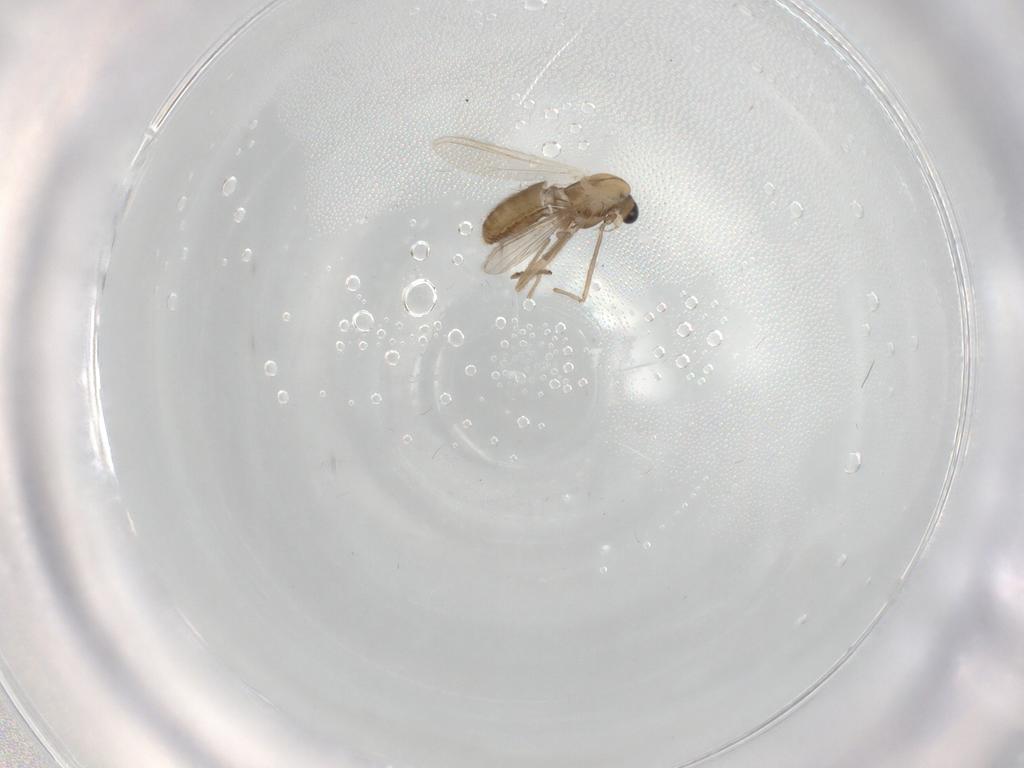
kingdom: Animalia
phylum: Arthropoda
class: Insecta
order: Diptera
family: Chironomidae
